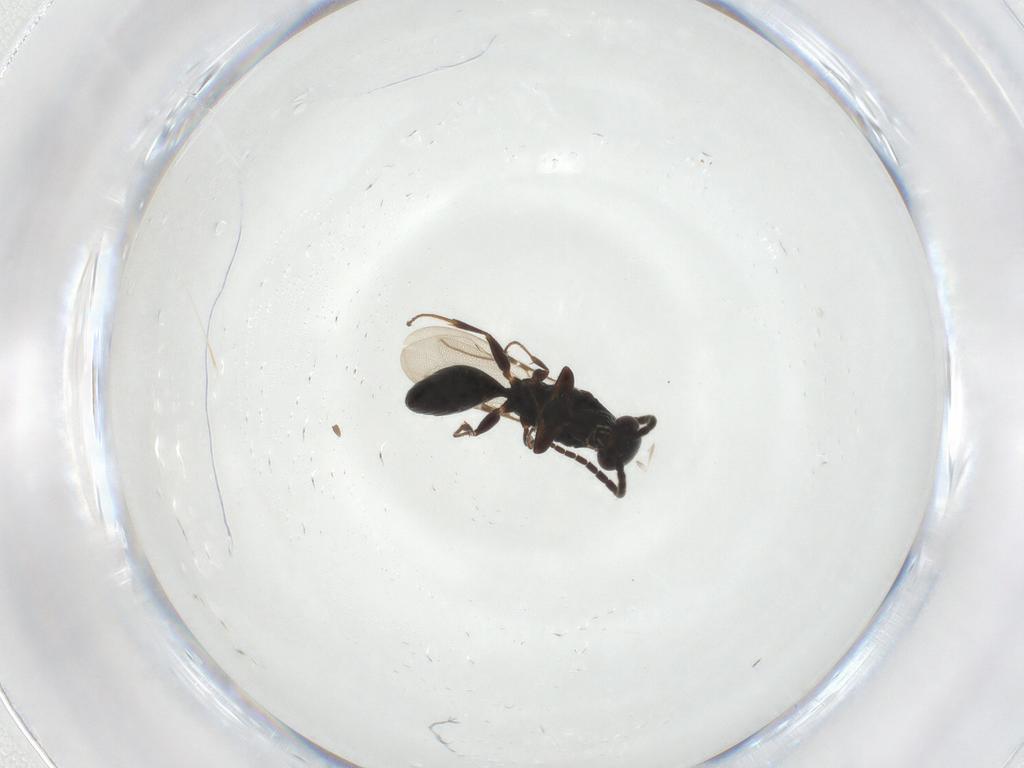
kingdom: Animalia
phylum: Arthropoda
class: Insecta
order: Hymenoptera
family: Bethylidae
